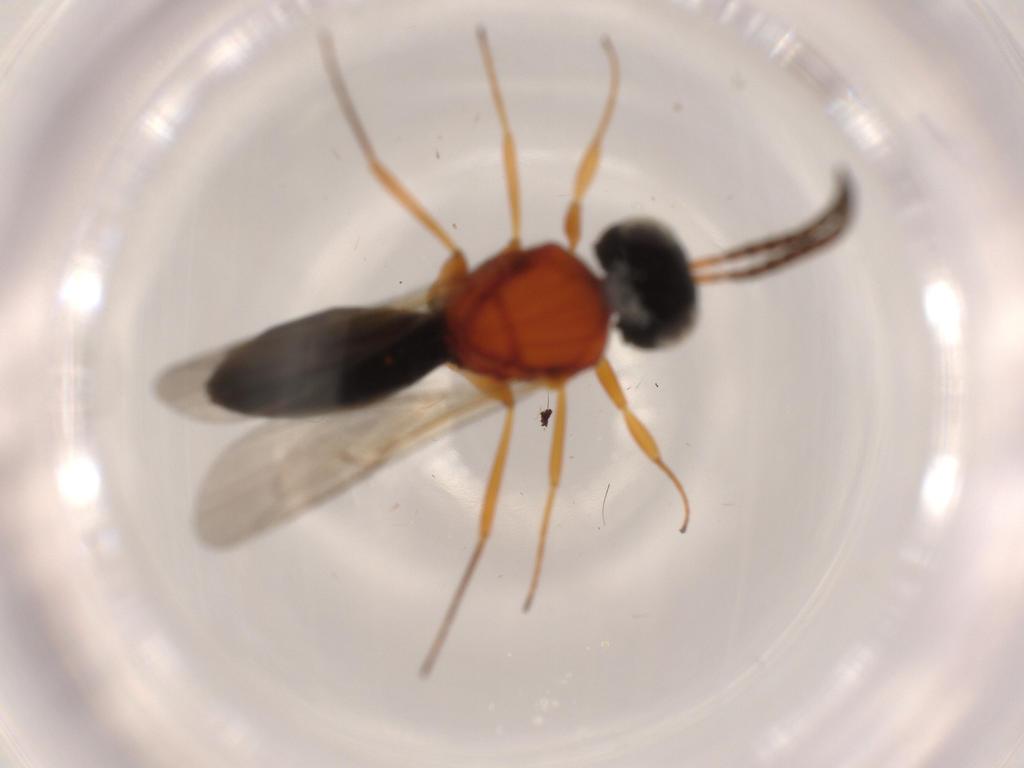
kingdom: Animalia
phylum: Arthropoda
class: Insecta
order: Hymenoptera
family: Scelionidae
